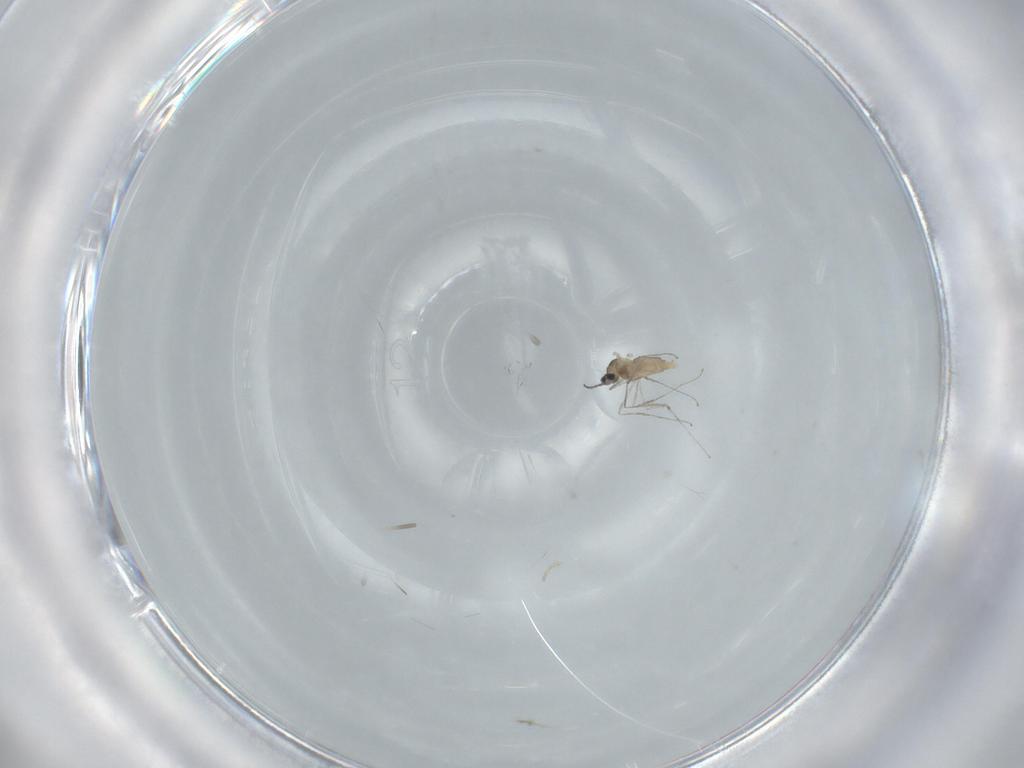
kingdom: Animalia
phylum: Arthropoda
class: Insecta
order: Diptera
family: Cecidomyiidae
